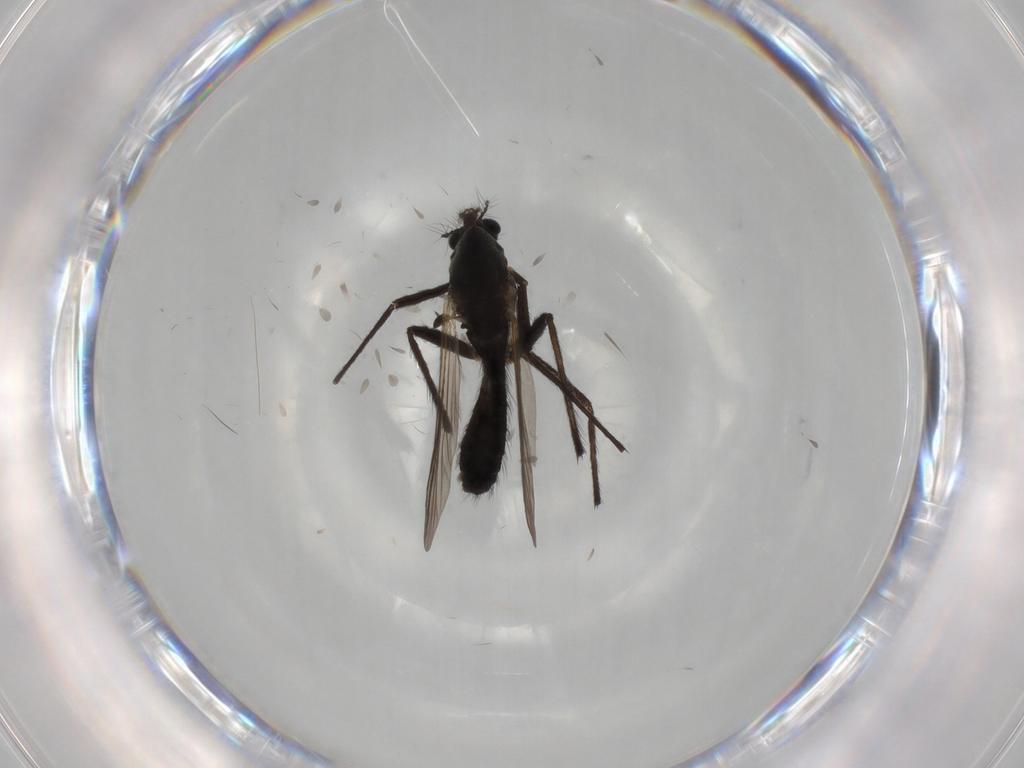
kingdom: Animalia
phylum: Arthropoda
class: Insecta
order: Diptera
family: Chironomidae
